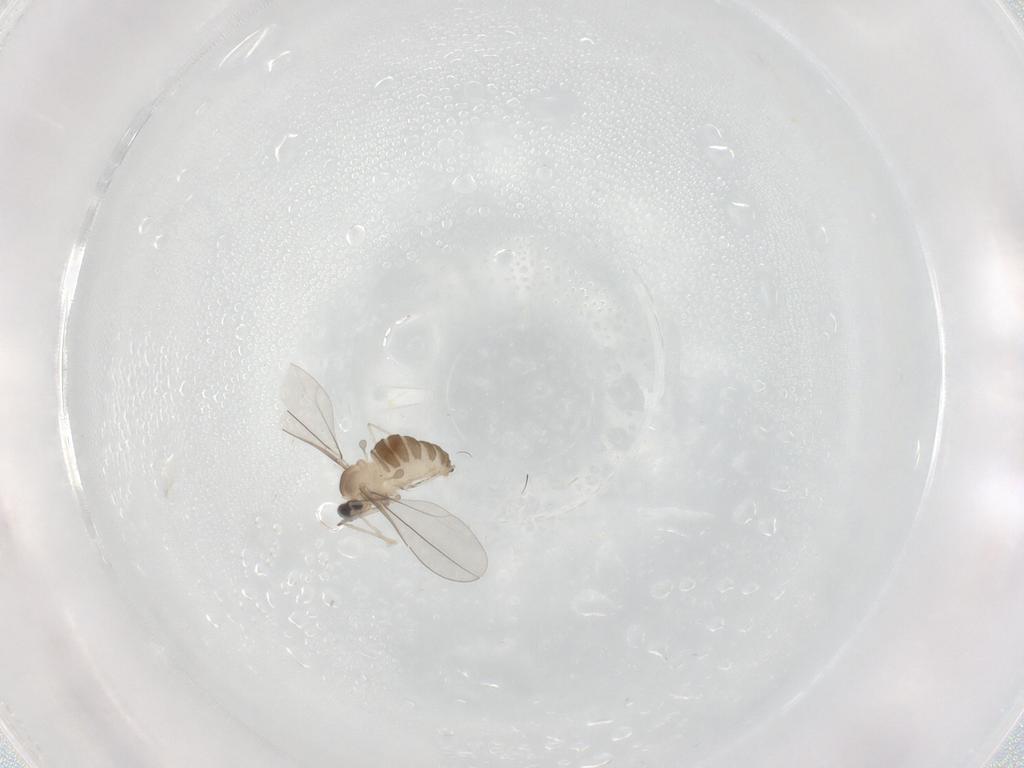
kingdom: Animalia
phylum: Arthropoda
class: Insecta
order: Diptera
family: Cecidomyiidae
